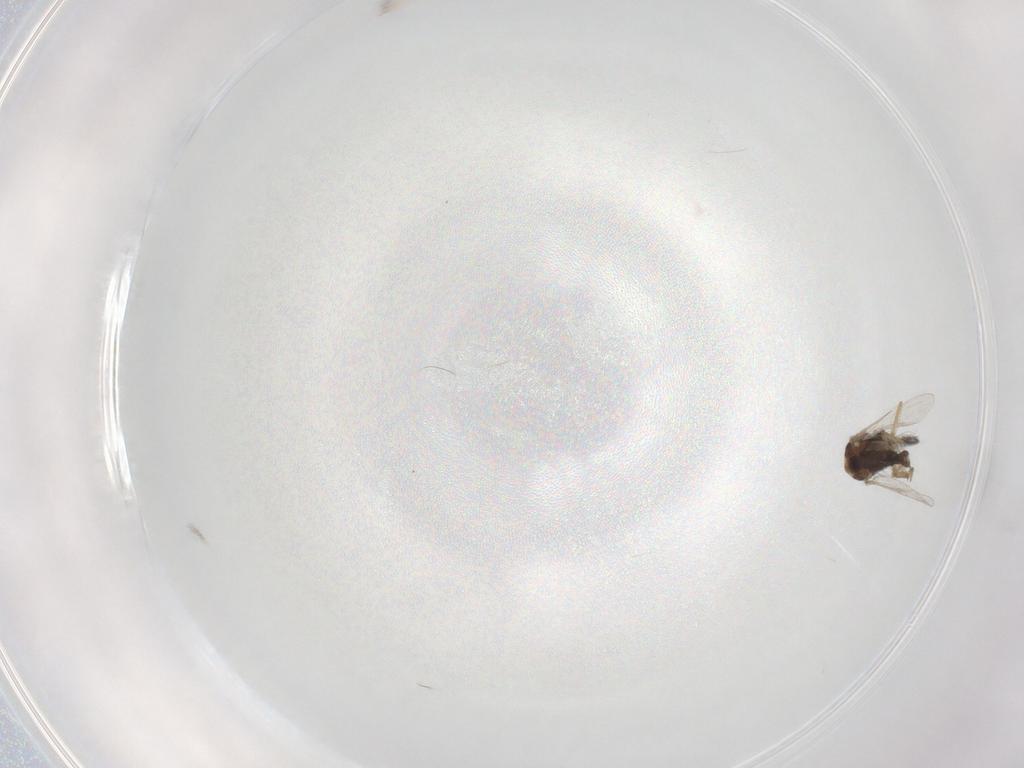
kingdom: Animalia
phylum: Arthropoda
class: Insecta
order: Diptera
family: Ceratopogonidae
